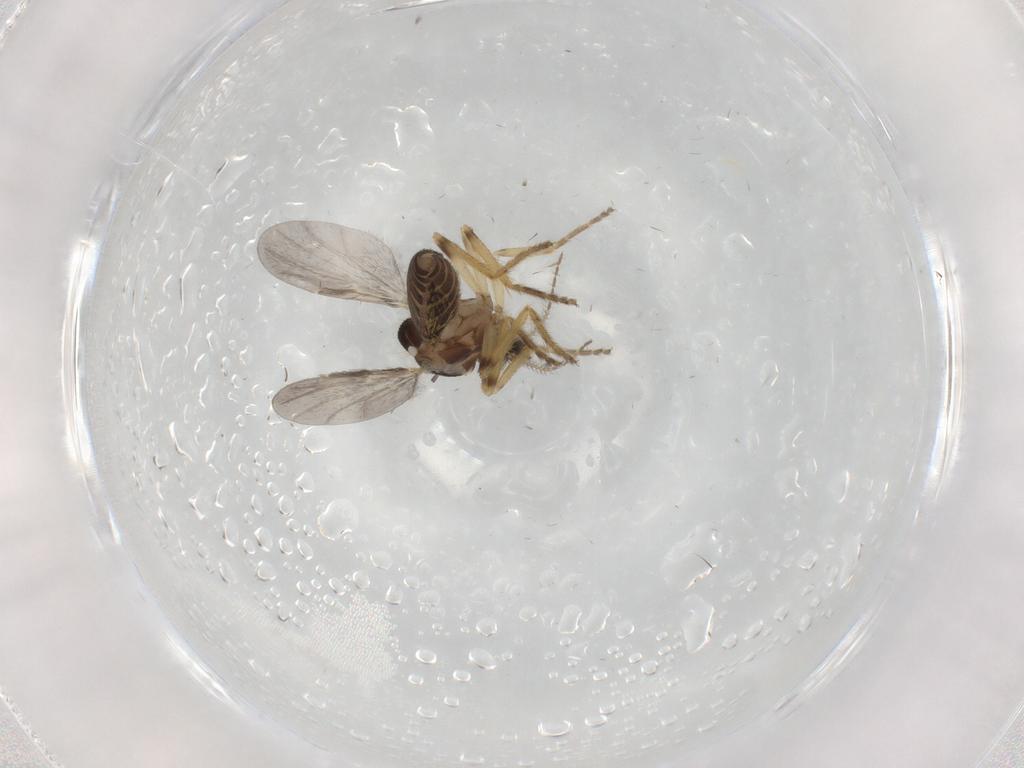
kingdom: Animalia
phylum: Arthropoda
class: Insecta
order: Diptera
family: Ceratopogonidae
